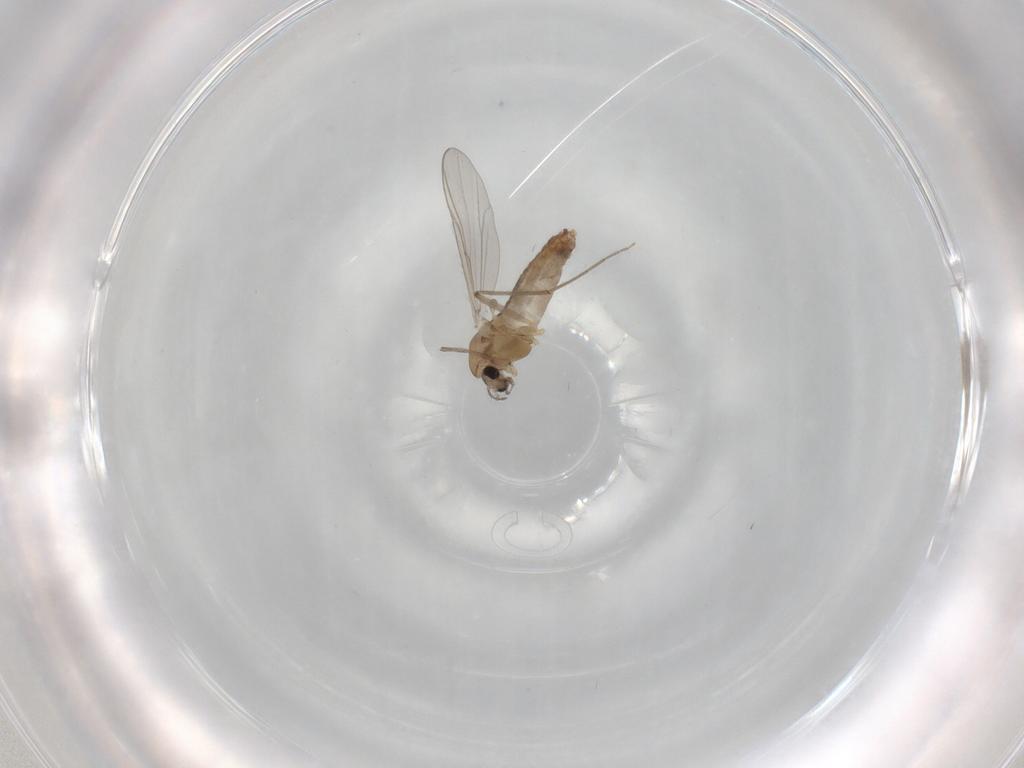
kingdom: Animalia
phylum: Arthropoda
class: Insecta
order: Diptera
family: Chironomidae
